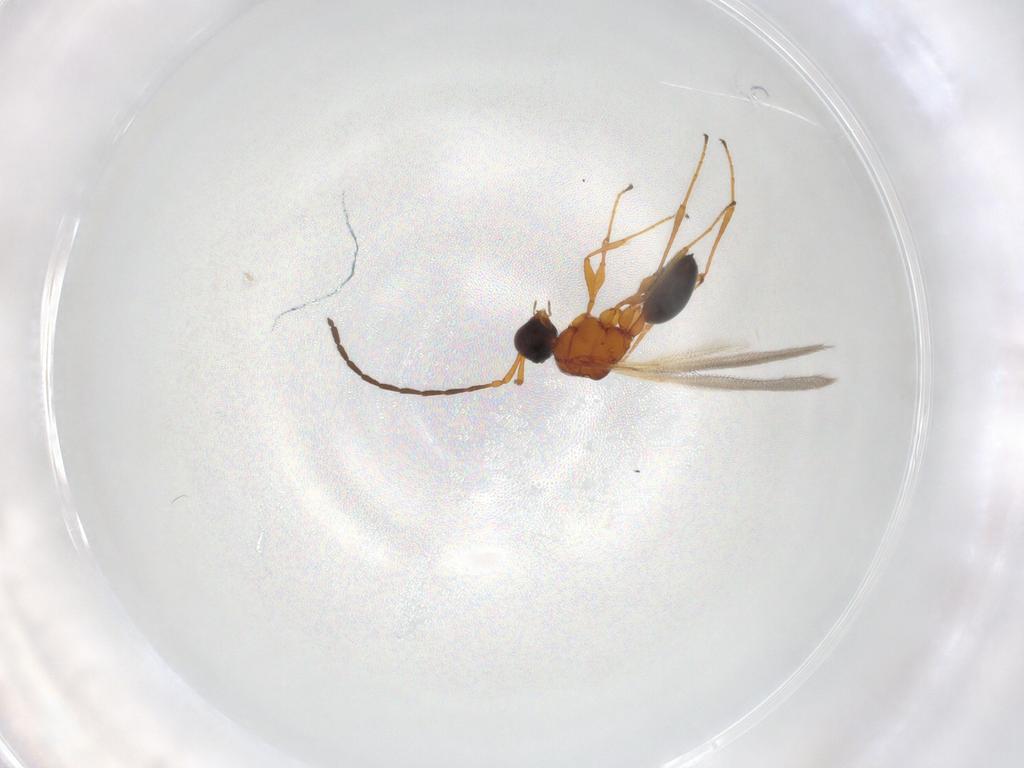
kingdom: Animalia
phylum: Arthropoda
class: Insecta
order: Hymenoptera
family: Diapriidae
